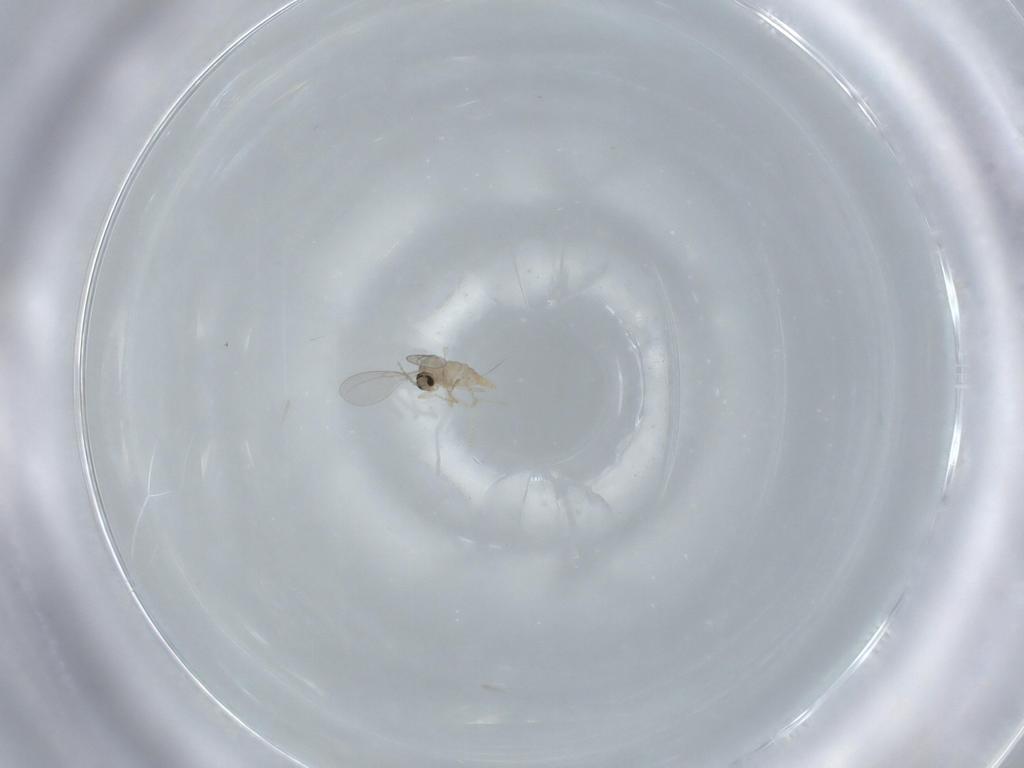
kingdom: Animalia
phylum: Arthropoda
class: Insecta
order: Diptera
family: Cecidomyiidae
